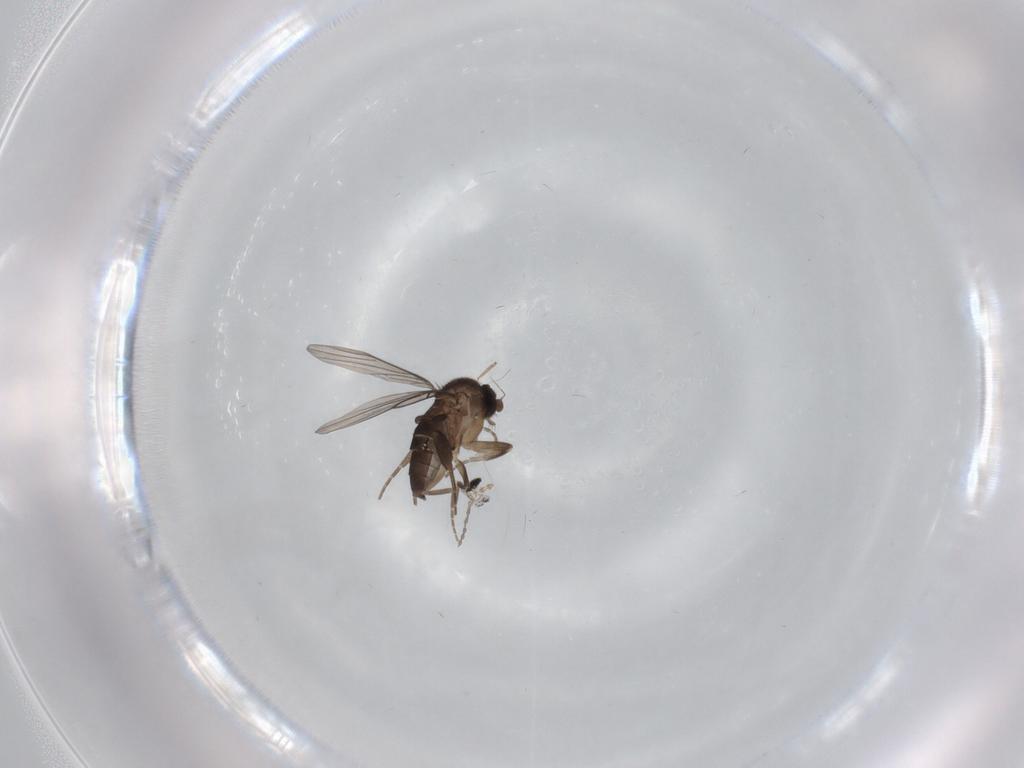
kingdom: Animalia
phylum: Arthropoda
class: Insecta
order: Diptera
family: Cecidomyiidae
